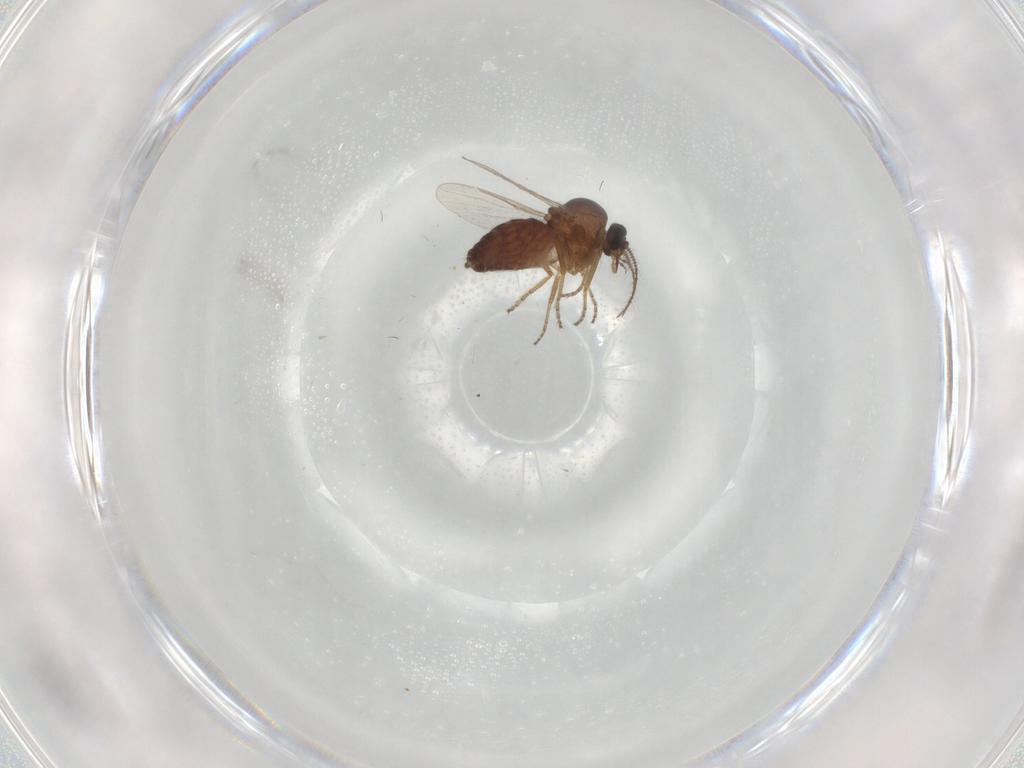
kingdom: Animalia
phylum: Arthropoda
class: Insecta
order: Diptera
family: Ceratopogonidae
